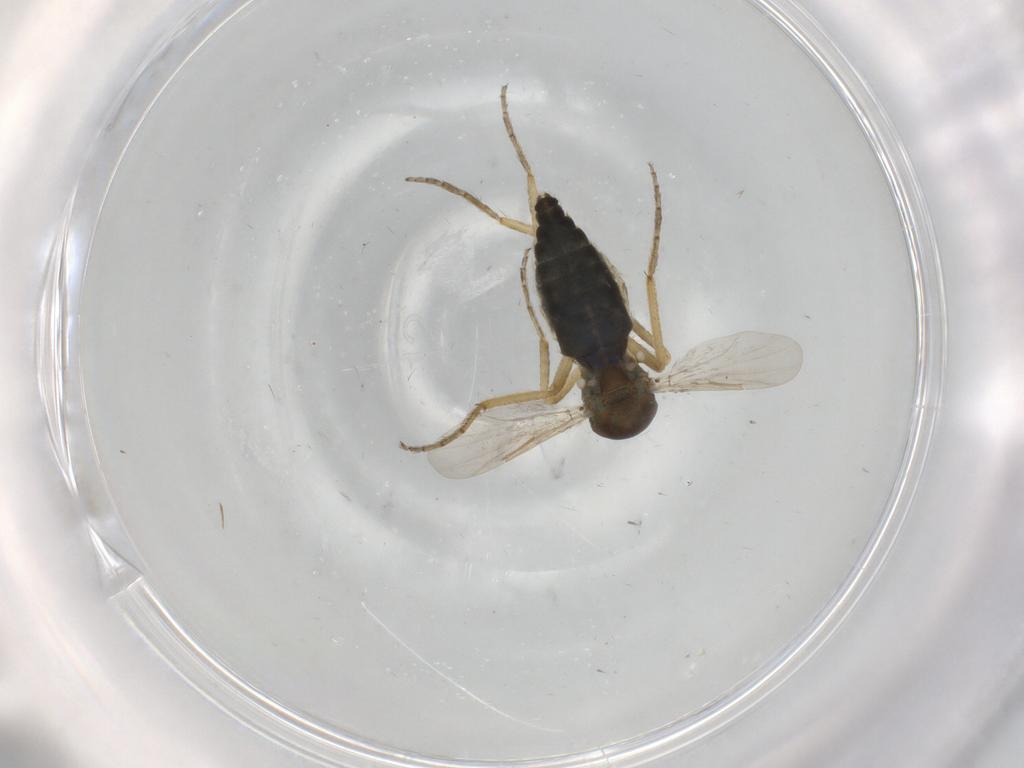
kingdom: Animalia
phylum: Arthropoda
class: Insecta
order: Diptera
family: Ceratopogonidae
